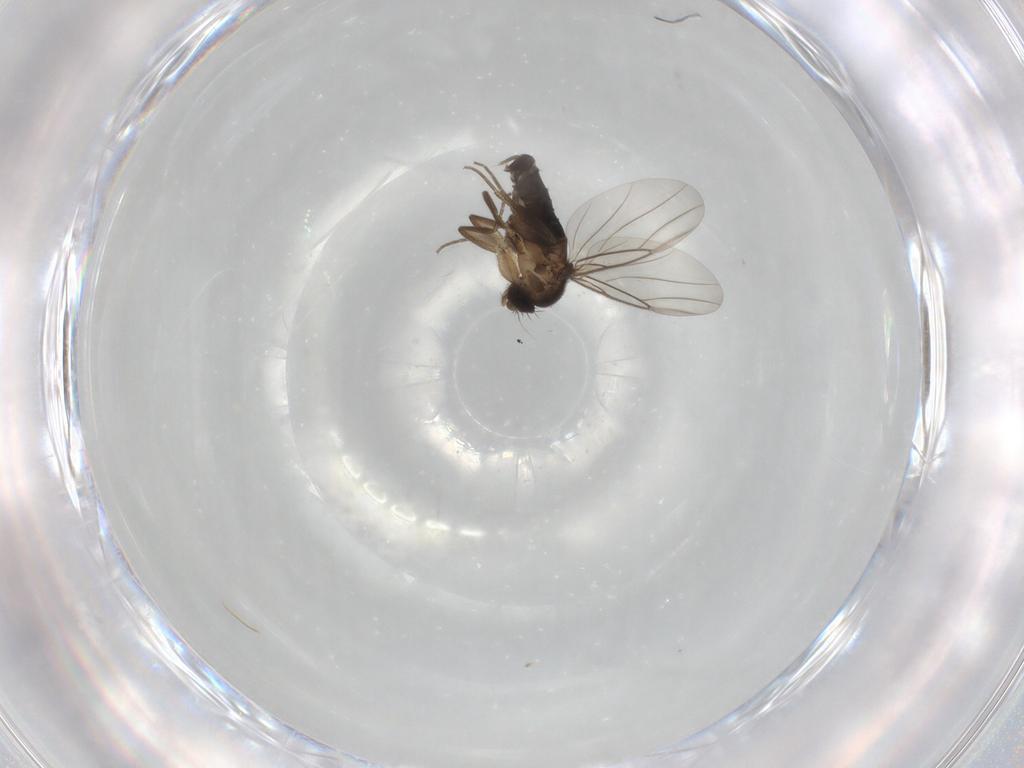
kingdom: Animalia
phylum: Arthropoda
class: Insecta
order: Diptera
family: Phoridae
